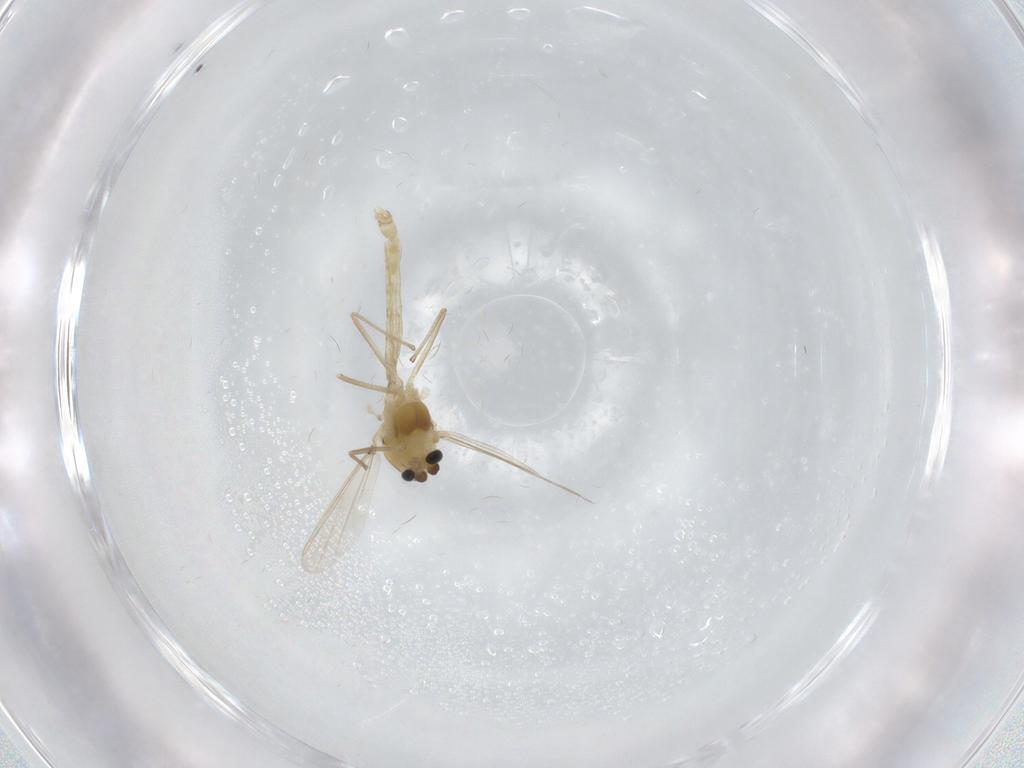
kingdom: Animalia
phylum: Arthropoda
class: Insecta
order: Diptera
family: Chironomidae
